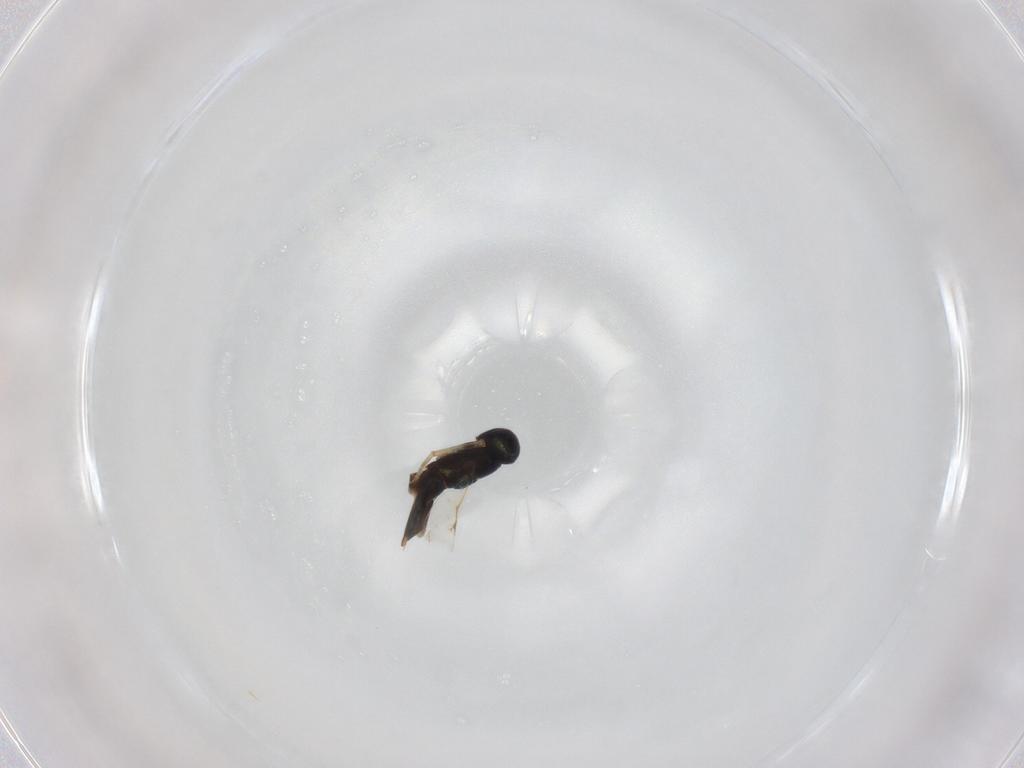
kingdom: Animalia
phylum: Arthropoda
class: Insecta
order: Hymenoptera
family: Encyrtidae
